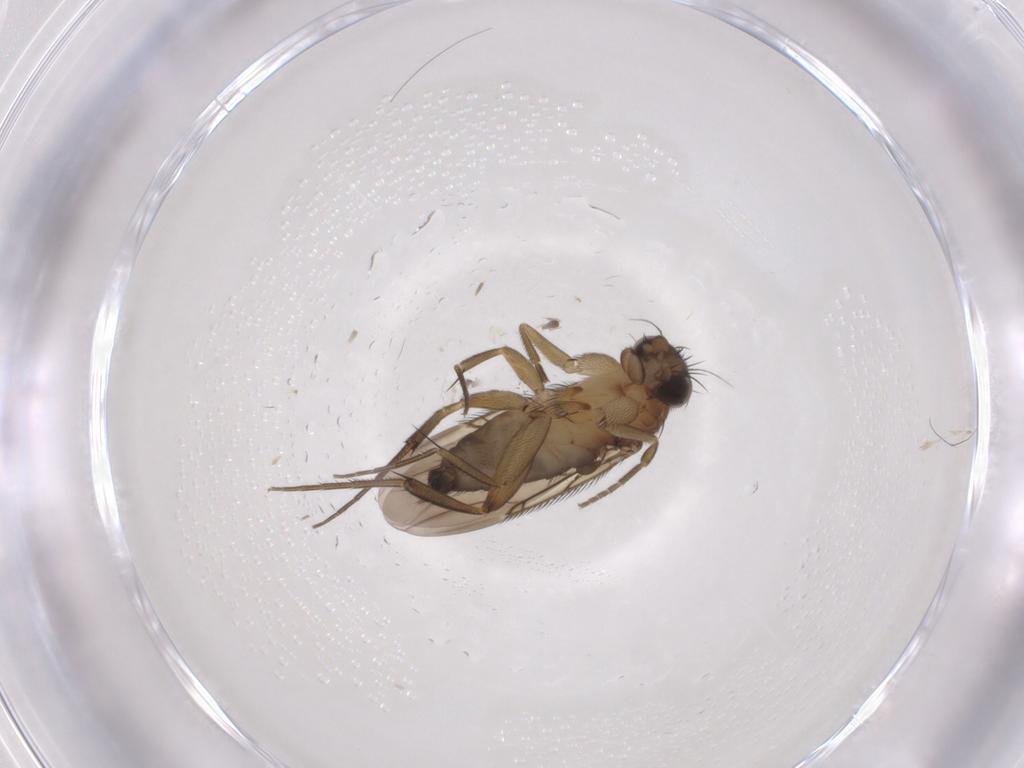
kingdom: Animalia
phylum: Arthropoda
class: Insecta
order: Diptera
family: Phoridae
